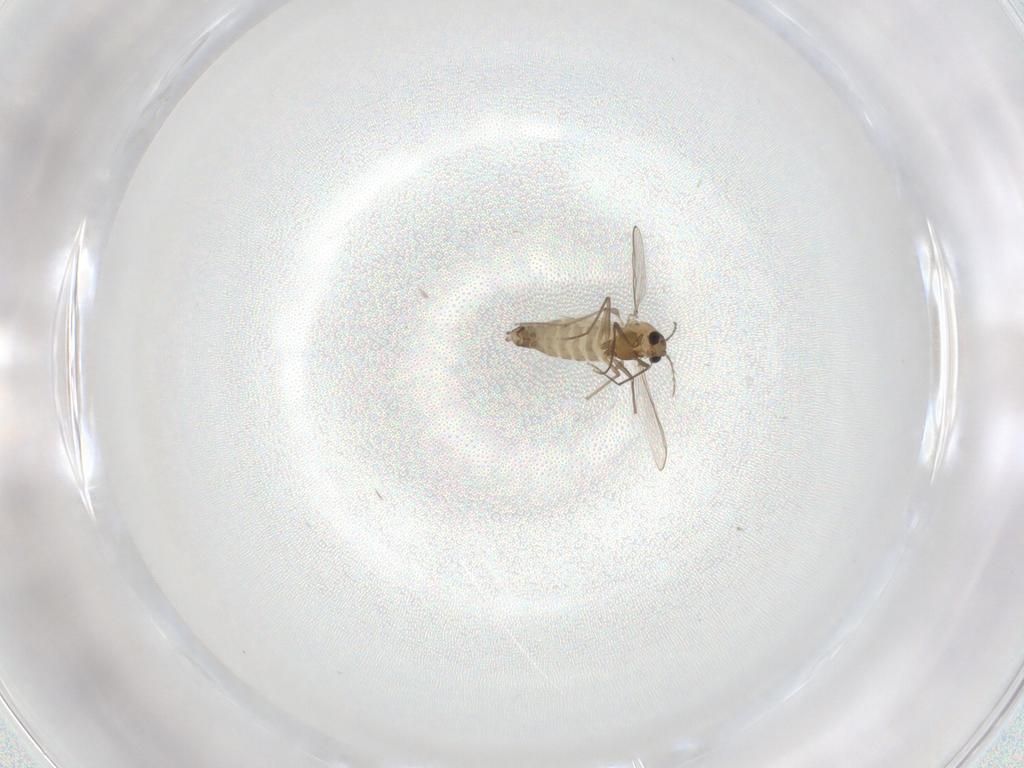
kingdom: Animalia
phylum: Arthropoda
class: Insecta
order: Diptera
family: Chironomidae
